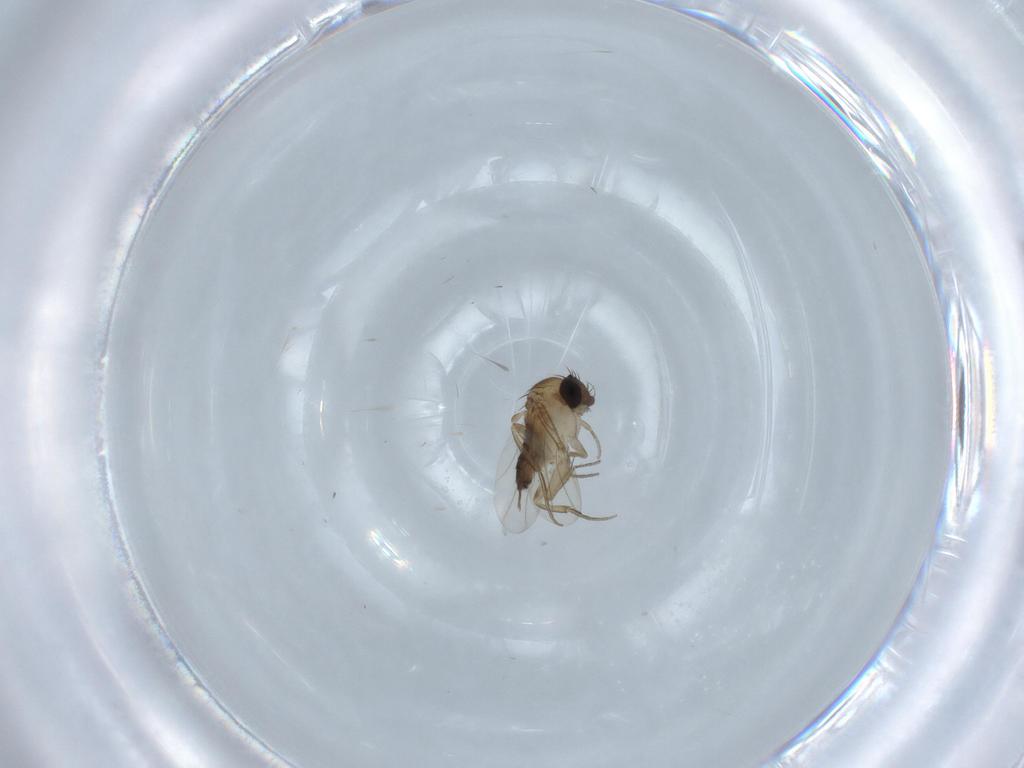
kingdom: Animalia
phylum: Arthropoda
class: Insecta
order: Diptera
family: Phoridae
